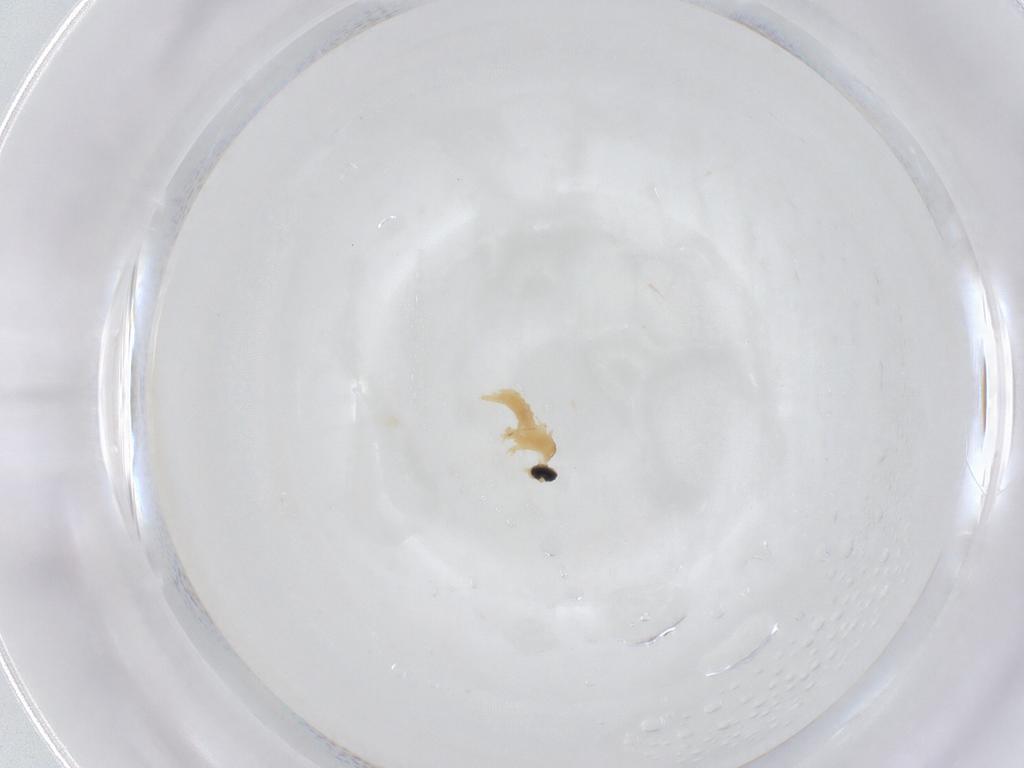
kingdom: Animalia
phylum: Arthropoda
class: Insecta
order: Diptera
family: Cecidomyiidae
